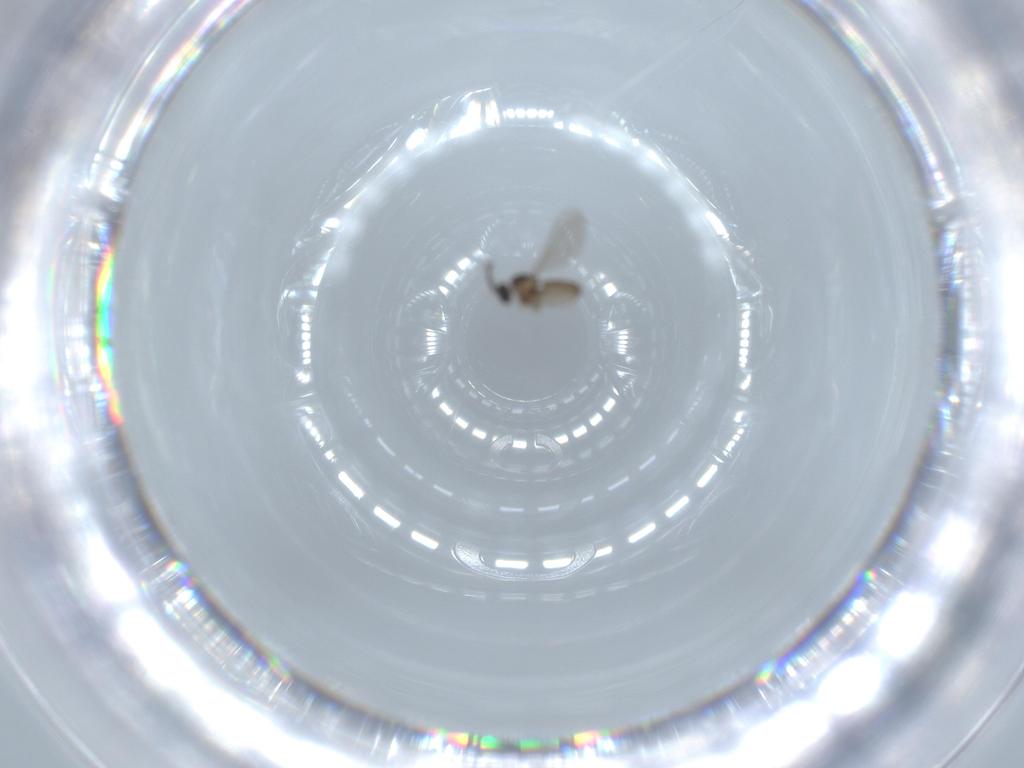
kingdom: Animalia
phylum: Arthropoda
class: Insecta
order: Diptera
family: Cecidomyiidae
